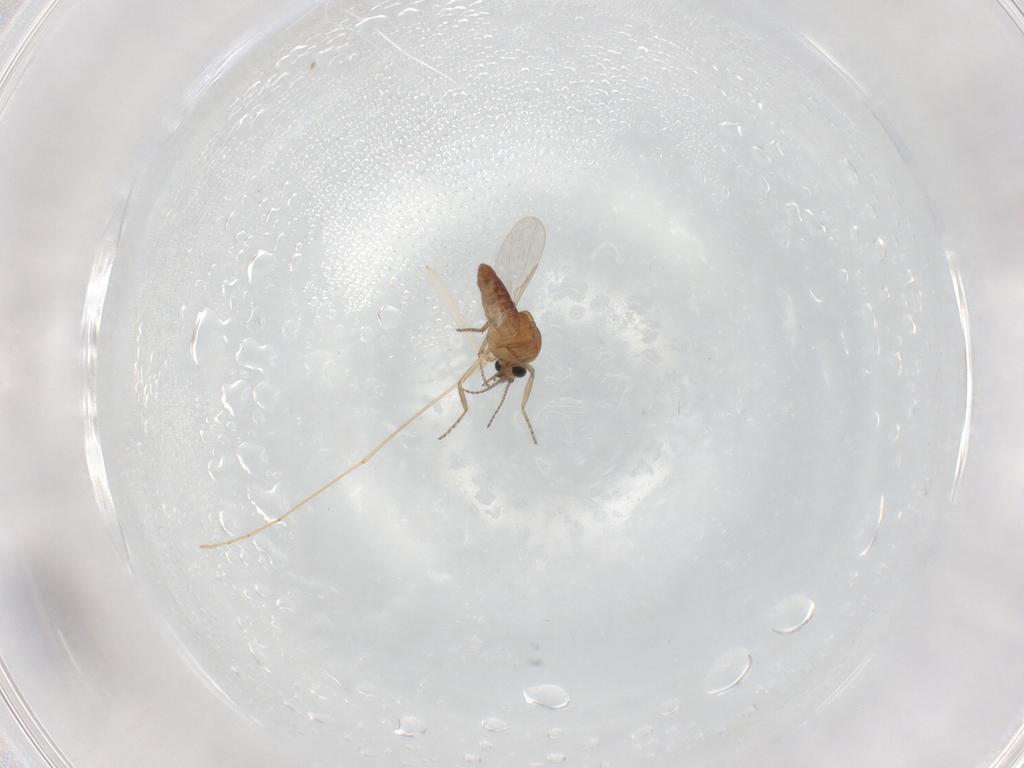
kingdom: Animalia
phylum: Arthropoda
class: Insecta
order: Diptera
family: Ceratopogonidae
